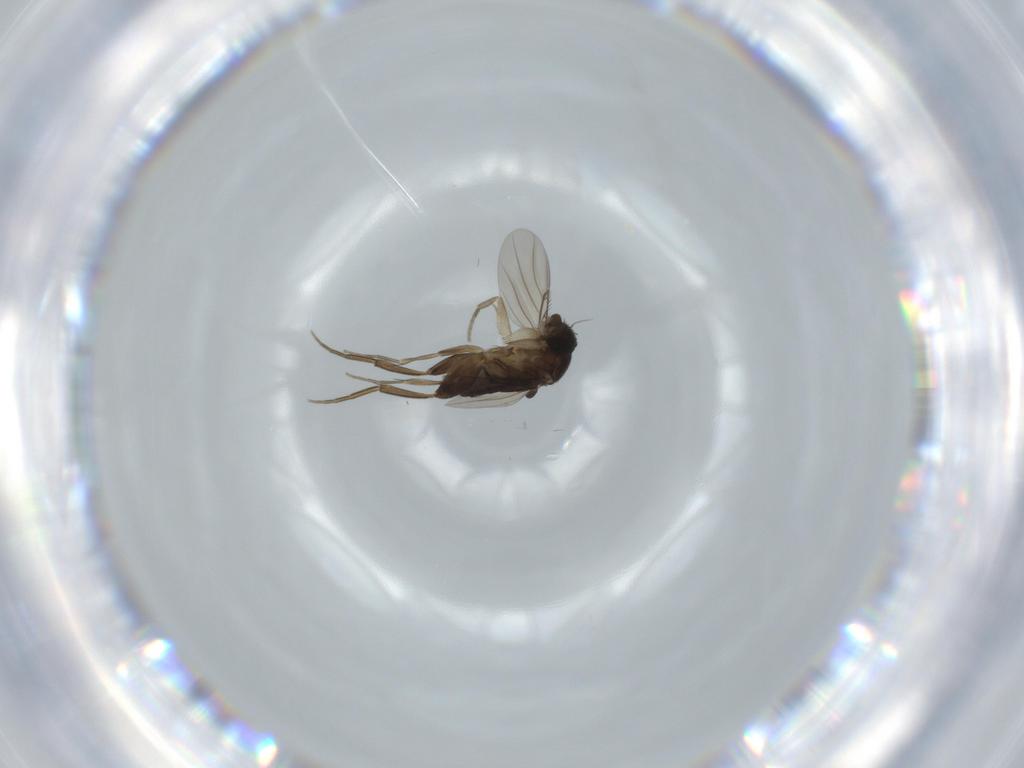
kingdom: Animalia
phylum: Arthropoda
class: Insecta
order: Diptera
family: Phoridae
